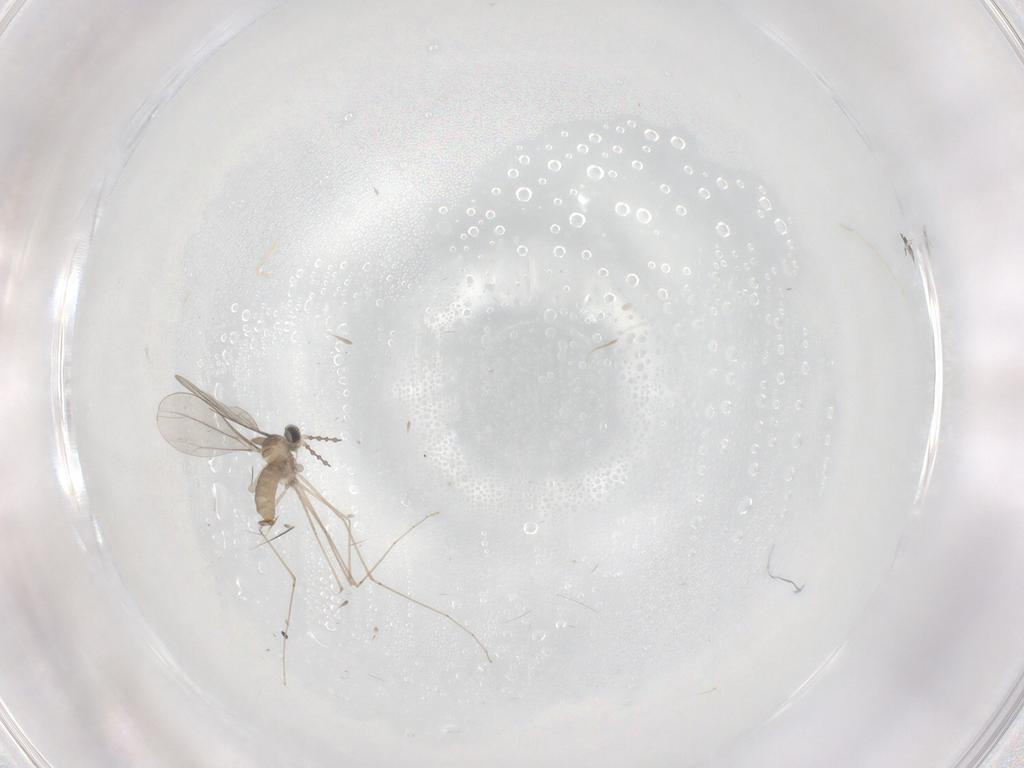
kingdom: Animalia
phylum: Arthropoda
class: Insecta
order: Diptera
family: Cecidomyiidae
